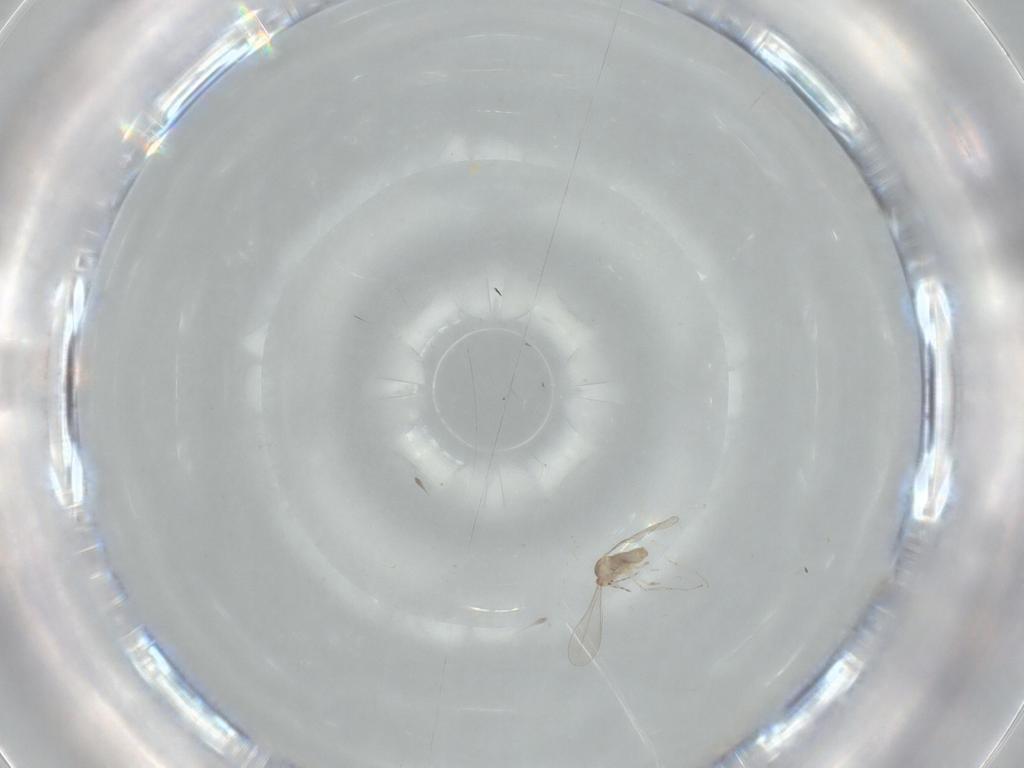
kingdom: Animalia
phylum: Arthropoda
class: Insecta
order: Diptera
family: Cecidomyiidae
